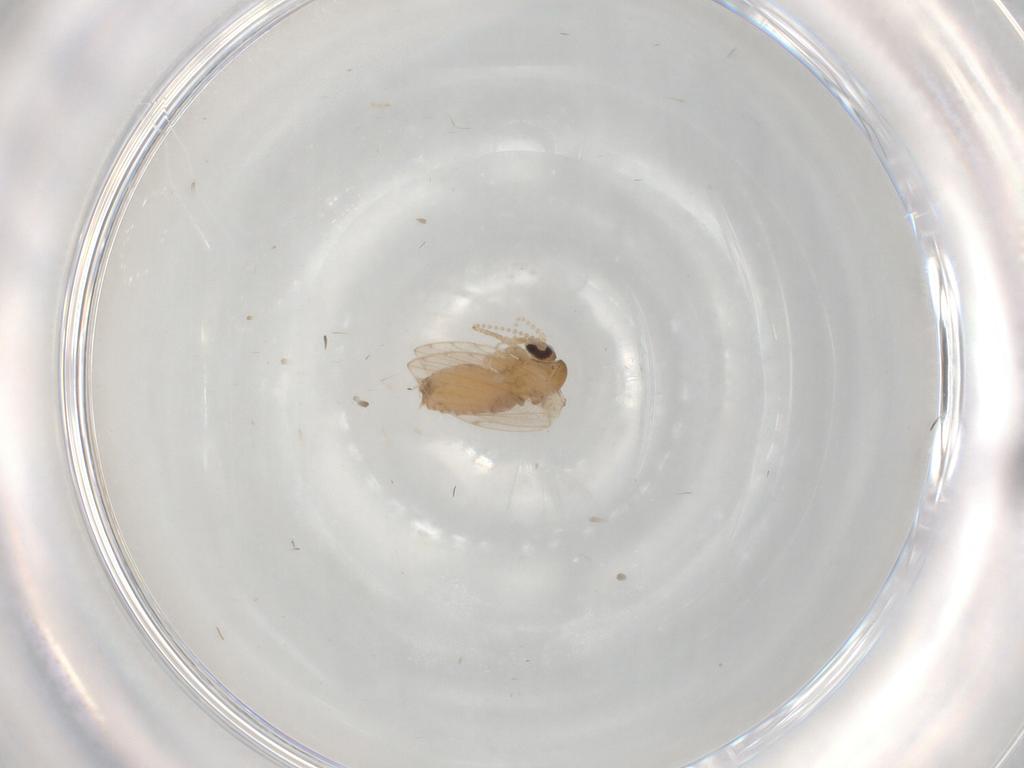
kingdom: Animalia
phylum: Arthropoda
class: Insecta
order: Diptera
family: Psychodidae
